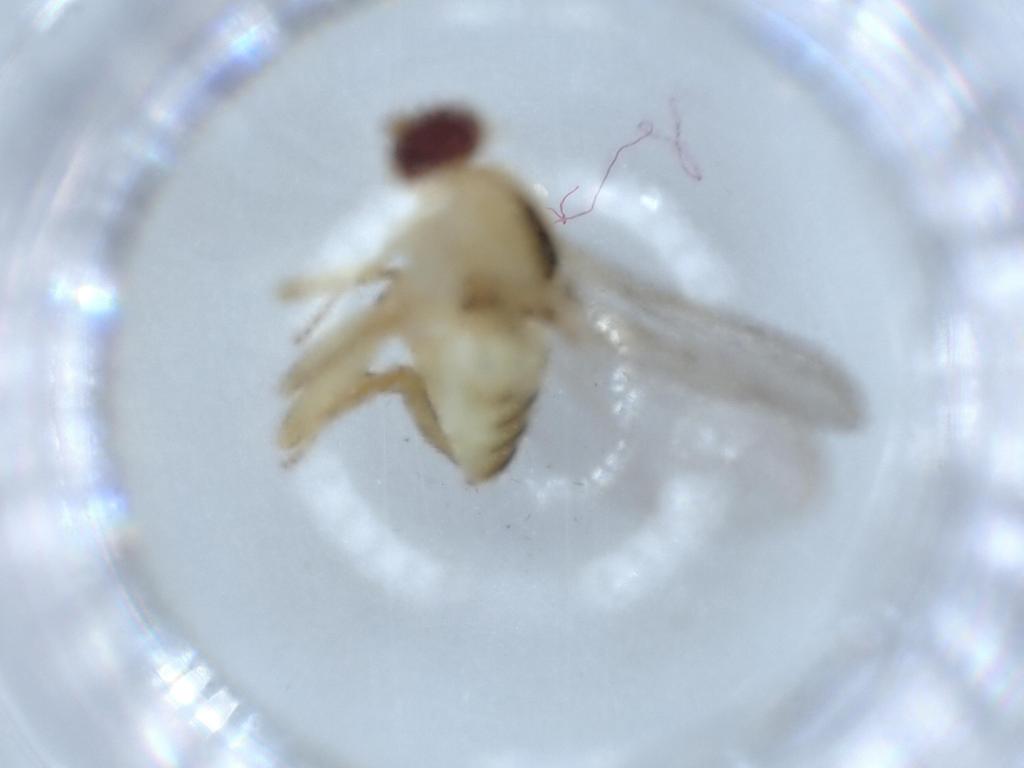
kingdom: Animalia
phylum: Arthropoda
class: Insecta
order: Diptera
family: Chloropidae
